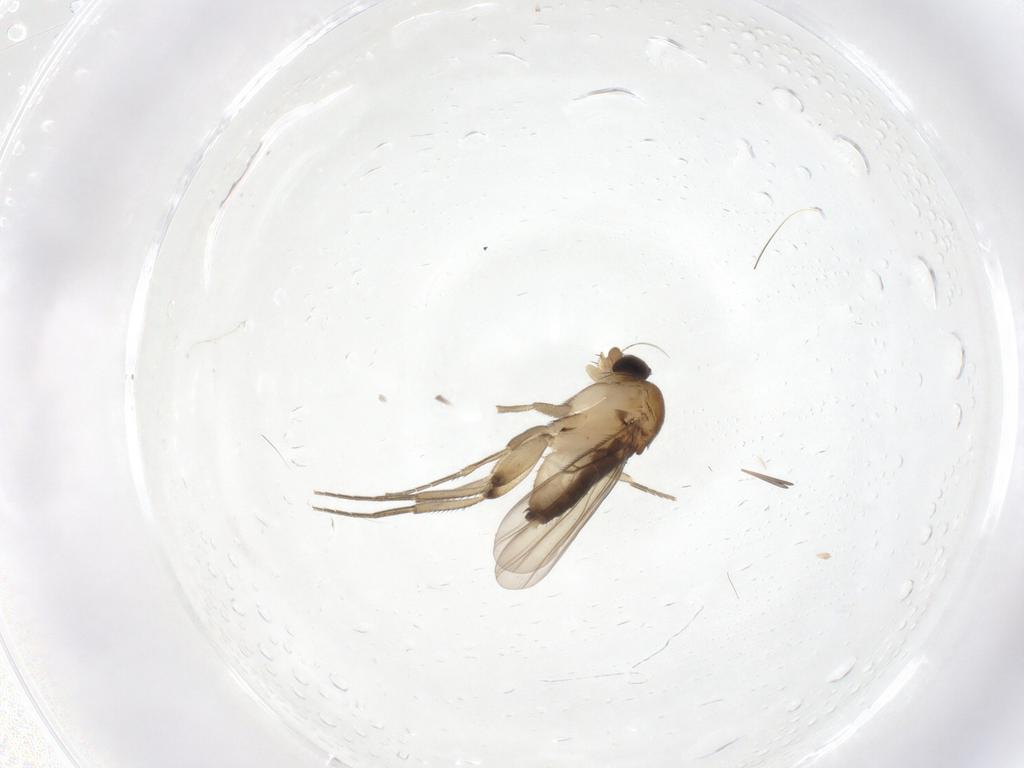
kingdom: Animalia
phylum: Arthropoda
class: Insecta
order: Diptera
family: Phoridae
